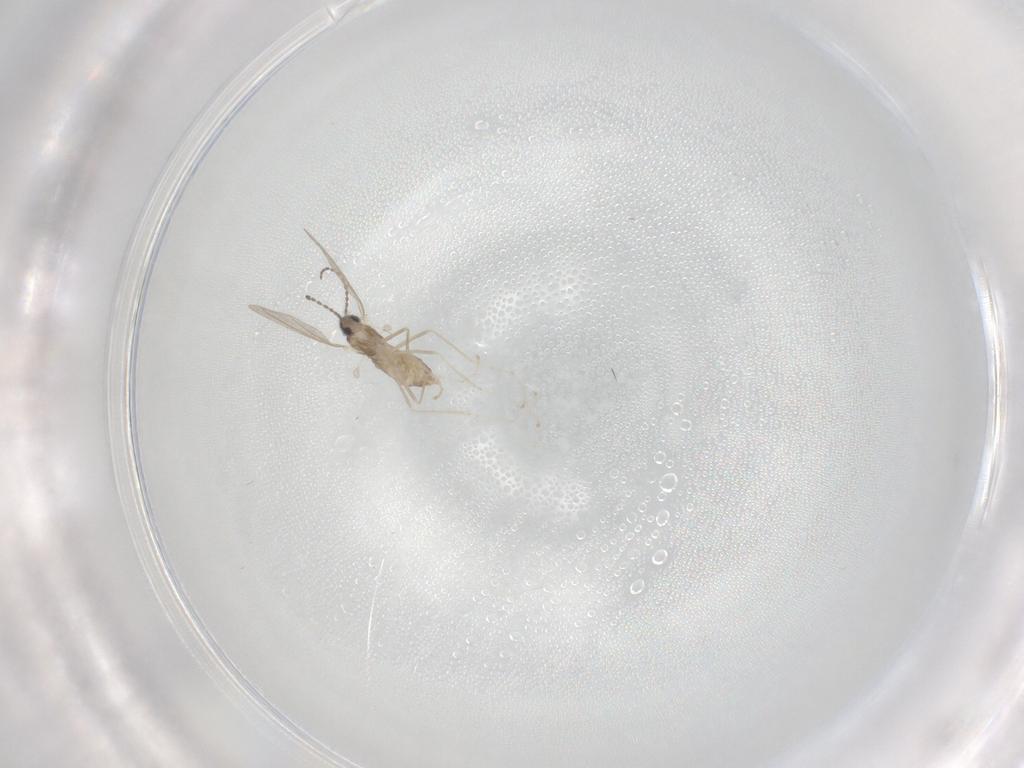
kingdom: Animalia
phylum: Arthropoda
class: Insecta
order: Diptera
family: Cecidomyiidae
